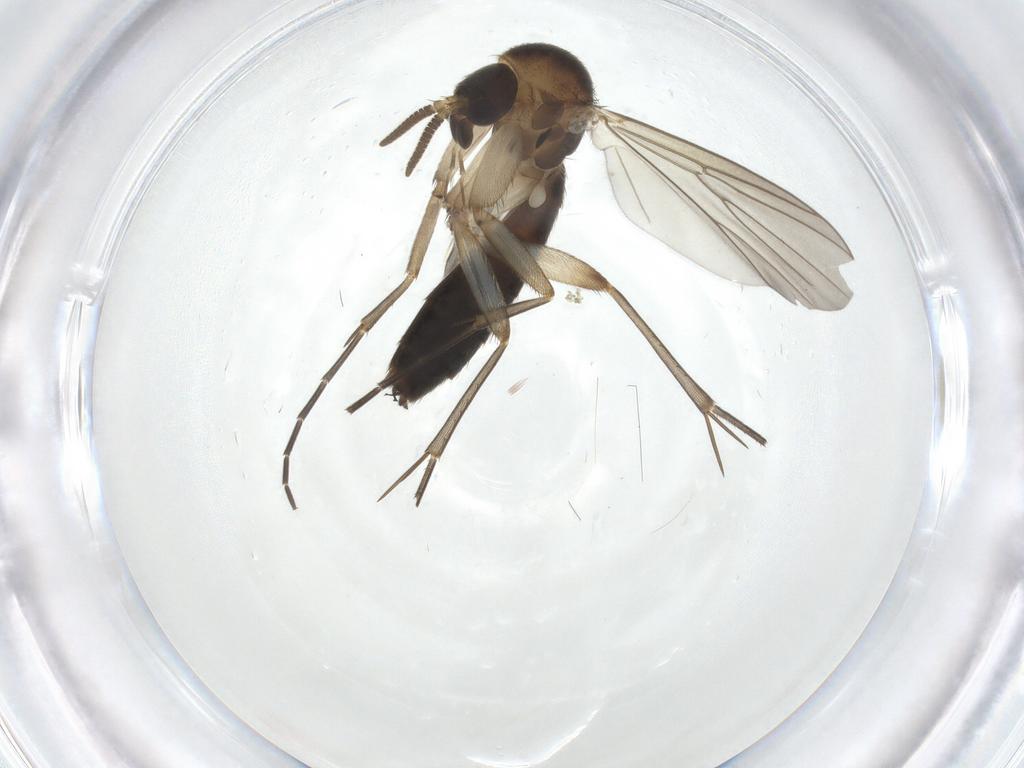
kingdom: Animalia
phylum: Arthropoda
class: Insecta
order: Diptera
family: Mycetophilidae
